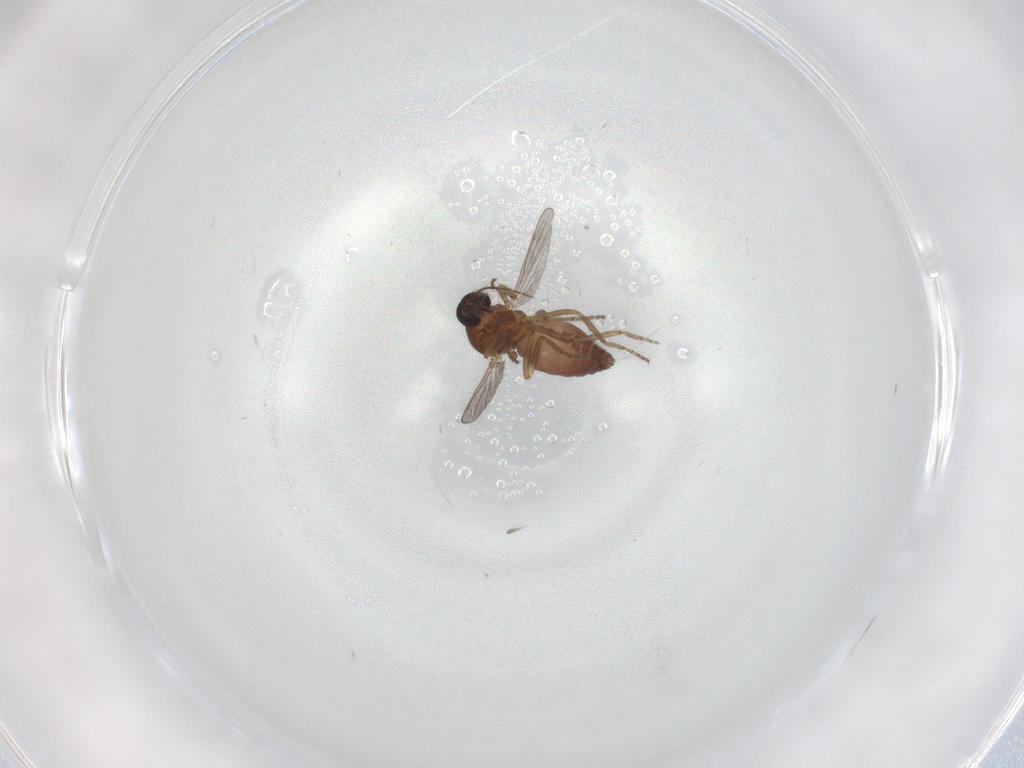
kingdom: Animalia
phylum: Arthropoda
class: Insecta
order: Diptera
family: Ceratopogonidae
